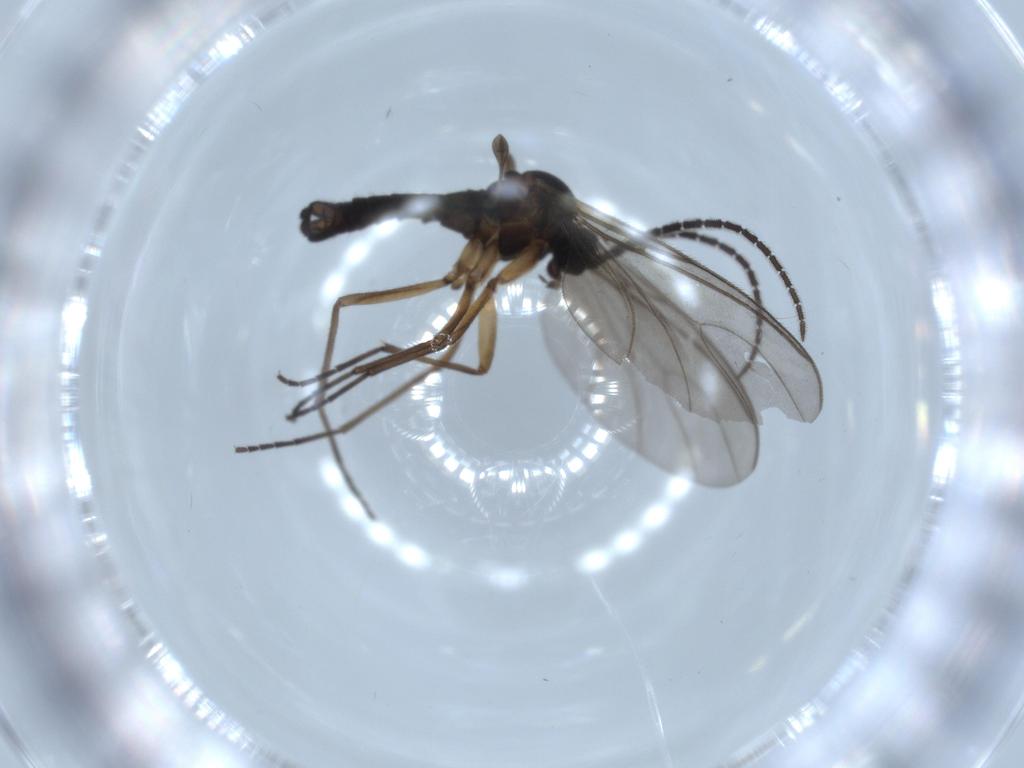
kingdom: Animalia
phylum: Arthropoda
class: Insecta
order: Diptera
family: Sciaridae
